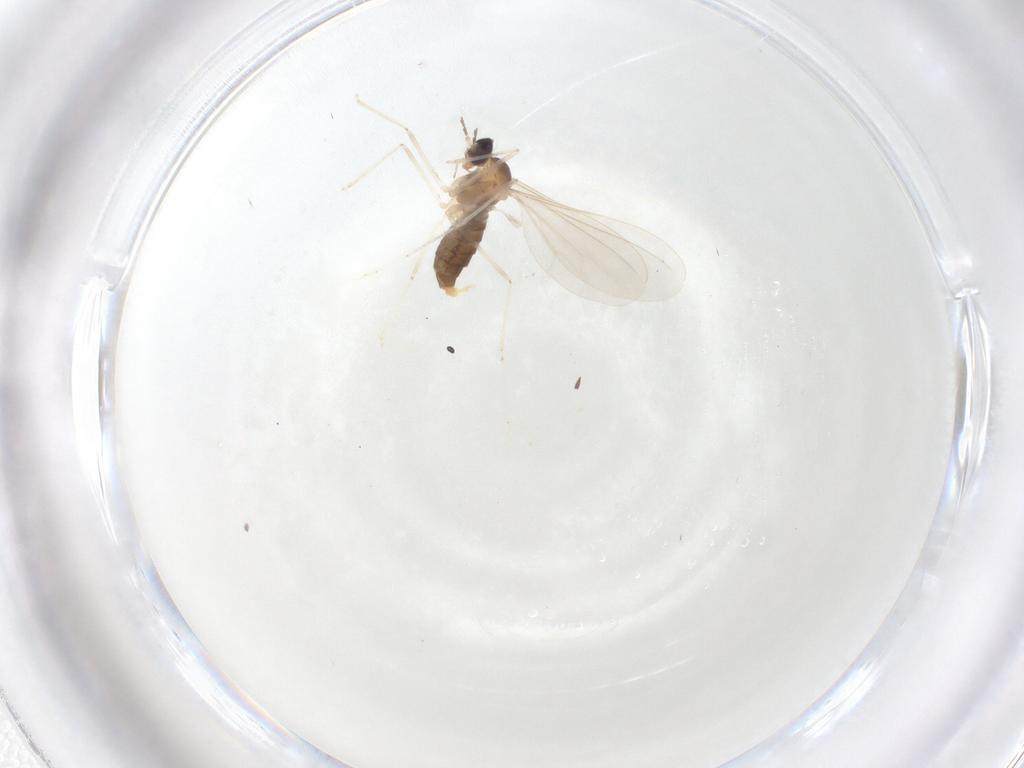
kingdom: Animalia
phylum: Arthropoda
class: Insecta
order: Diptera
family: Cecidomyiidae
